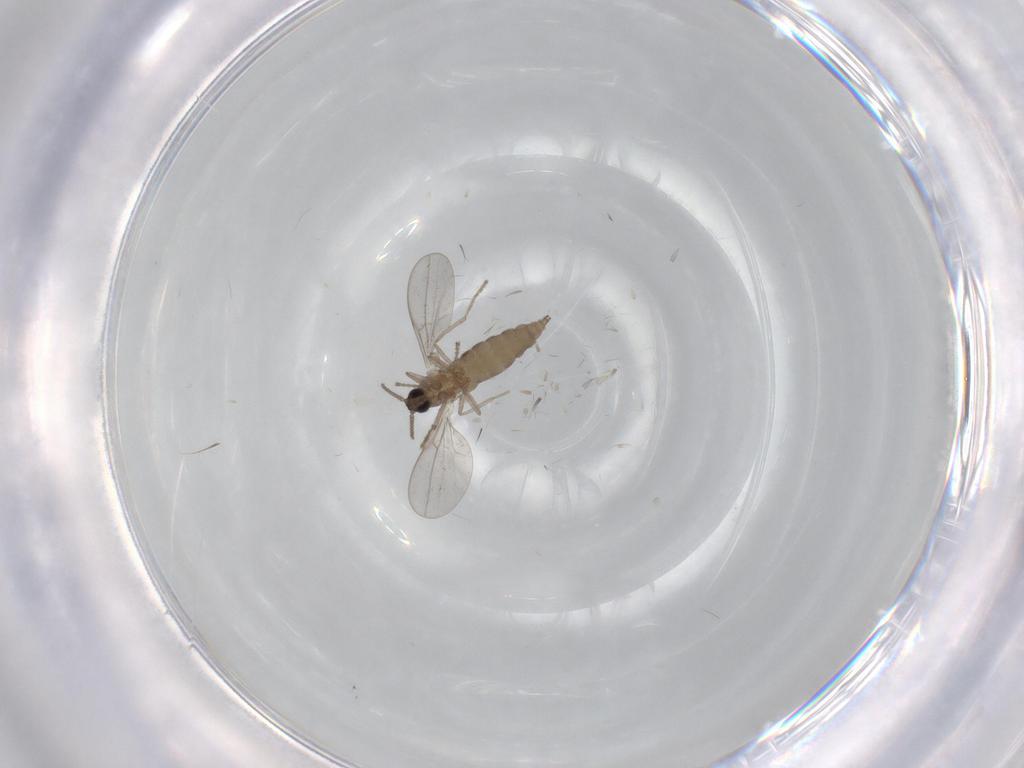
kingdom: Animalia
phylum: Arthropoda
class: Insecta
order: Diptera
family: Cecidomyiidae
